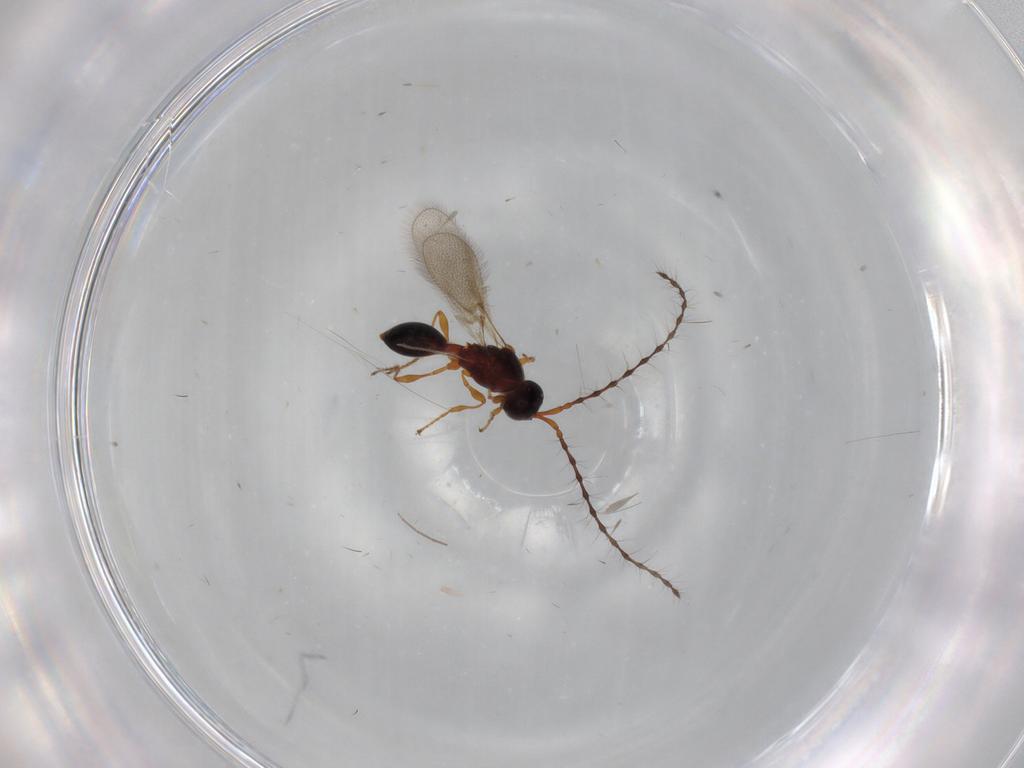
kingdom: Animalia
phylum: Arthropoda
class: Insecta
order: Hymenoptera
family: Diapriidae
